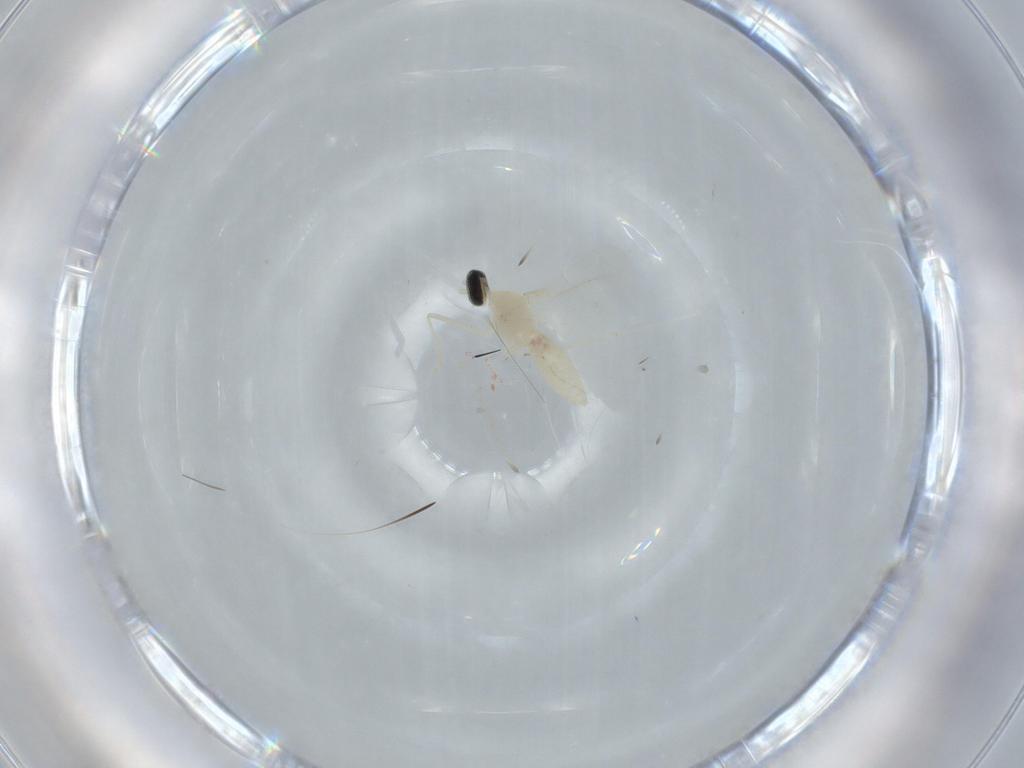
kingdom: Animalia
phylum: Arthropoda
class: Insecta
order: Diptera
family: Cecidomyiidae
